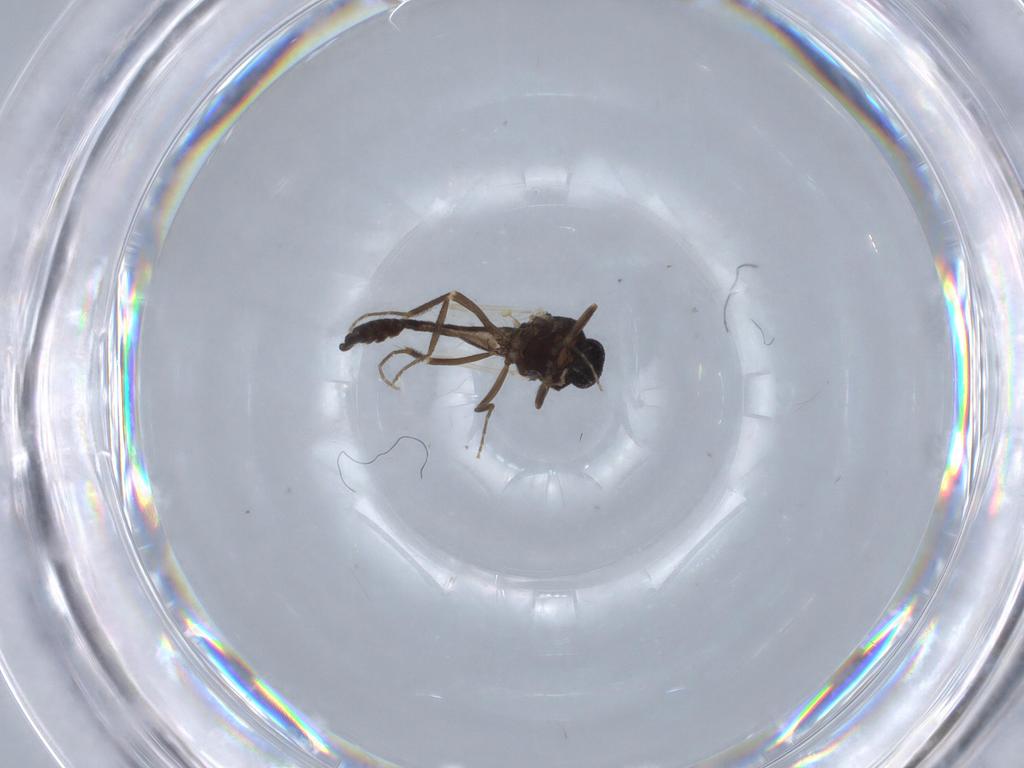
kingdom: Animalia
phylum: Arthropoda
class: Insecta
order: Diptera
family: Ceratopogonidae
